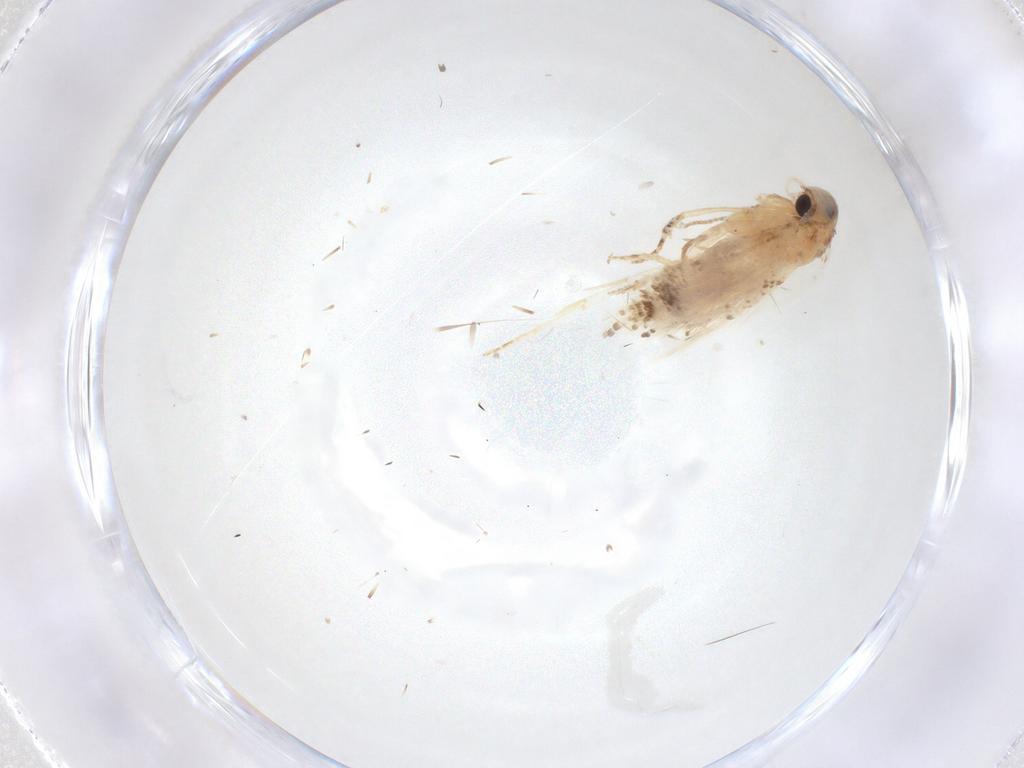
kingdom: Animalia
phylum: Arthropoda
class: Insecta
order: Lepidoptera
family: Gelechiidae
